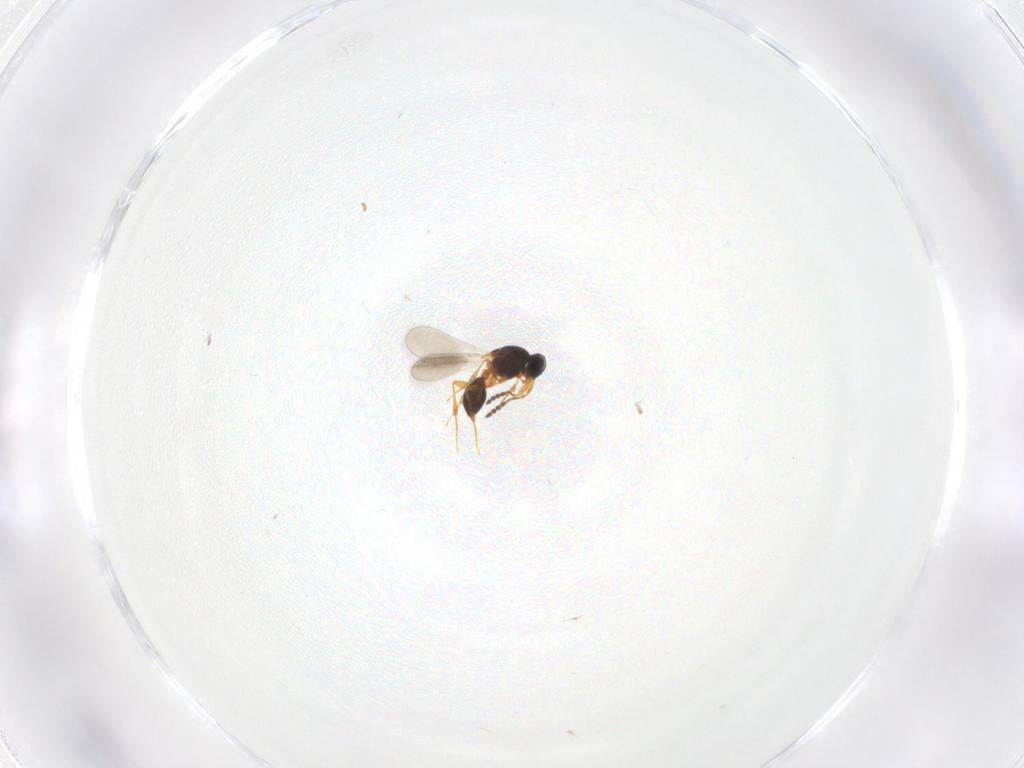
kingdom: Animalia
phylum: Arthropoda
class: Insecta
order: Hymenoptera
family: Platygastridae
